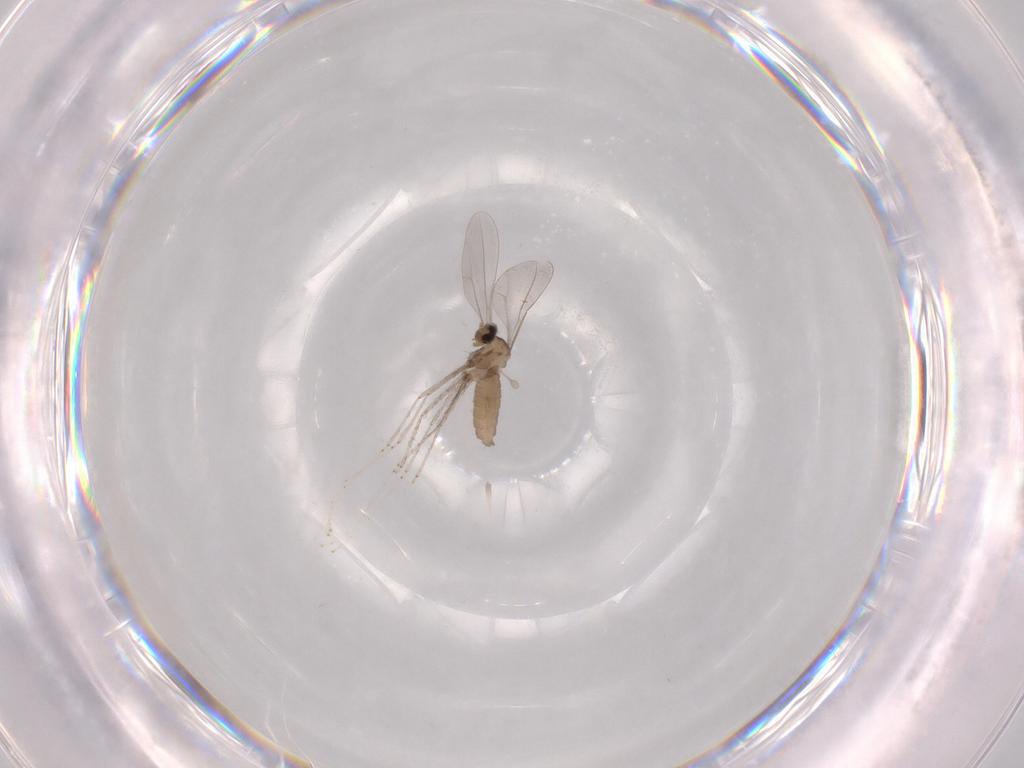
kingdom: Animalia
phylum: Arthropoda
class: Insecta
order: Diptera
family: Cecidomyiidae
